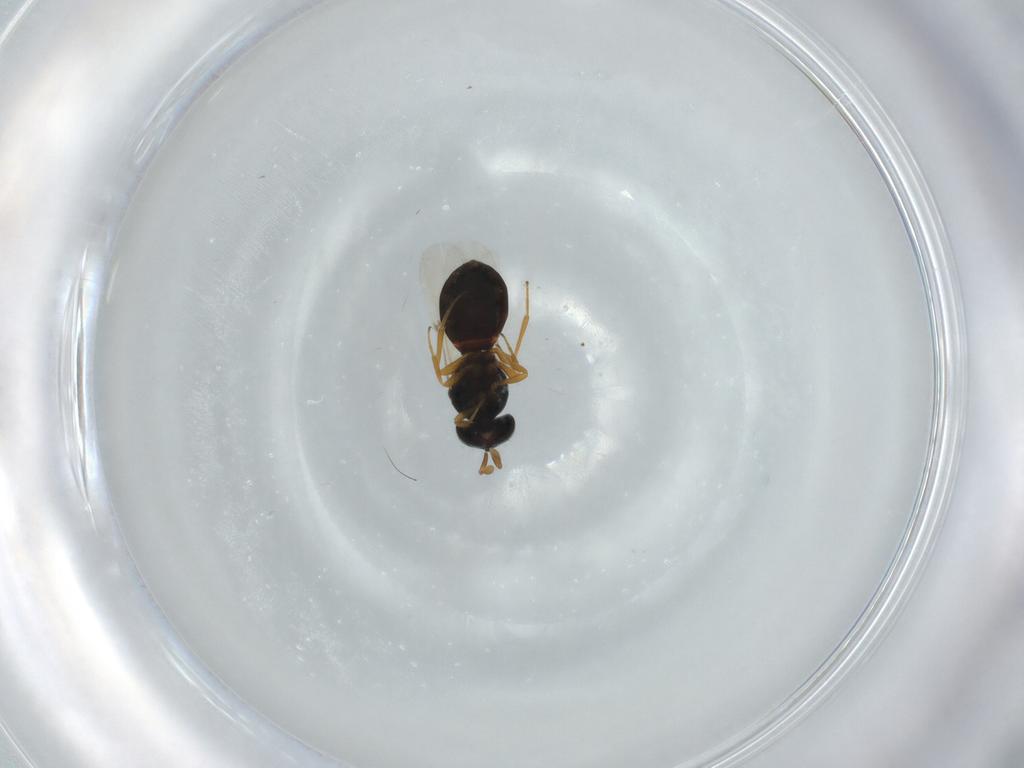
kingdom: Animalia
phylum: Arthropoda
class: Insecta
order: Hymenoptera
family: Scelionidae
